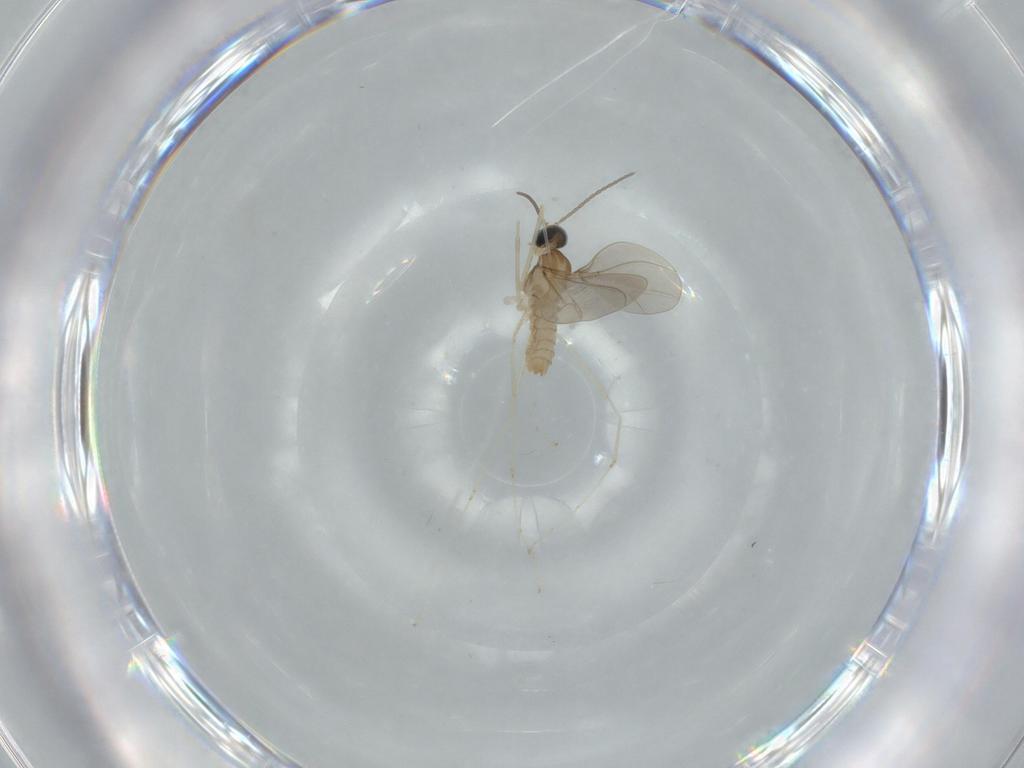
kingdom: Animalia
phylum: Arthropoda
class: Insecta
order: Diptera
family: Cecidomyiidae
